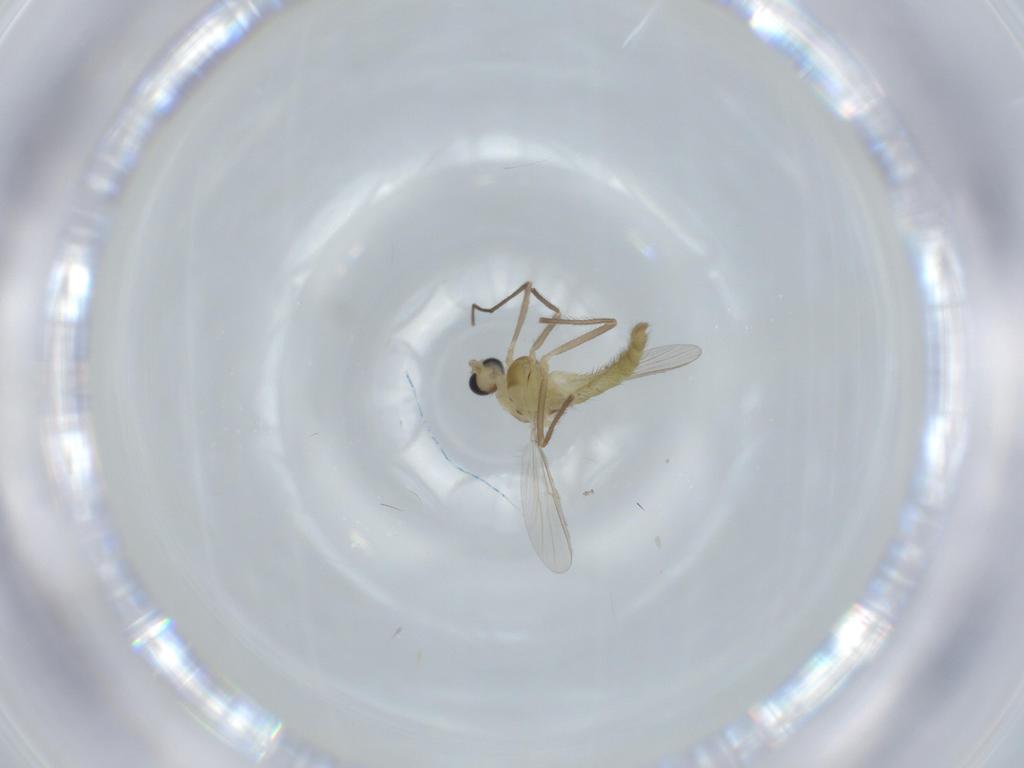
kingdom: Animalia
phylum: Arthropoda
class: Insecta
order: Diptera
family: Chironomidae
